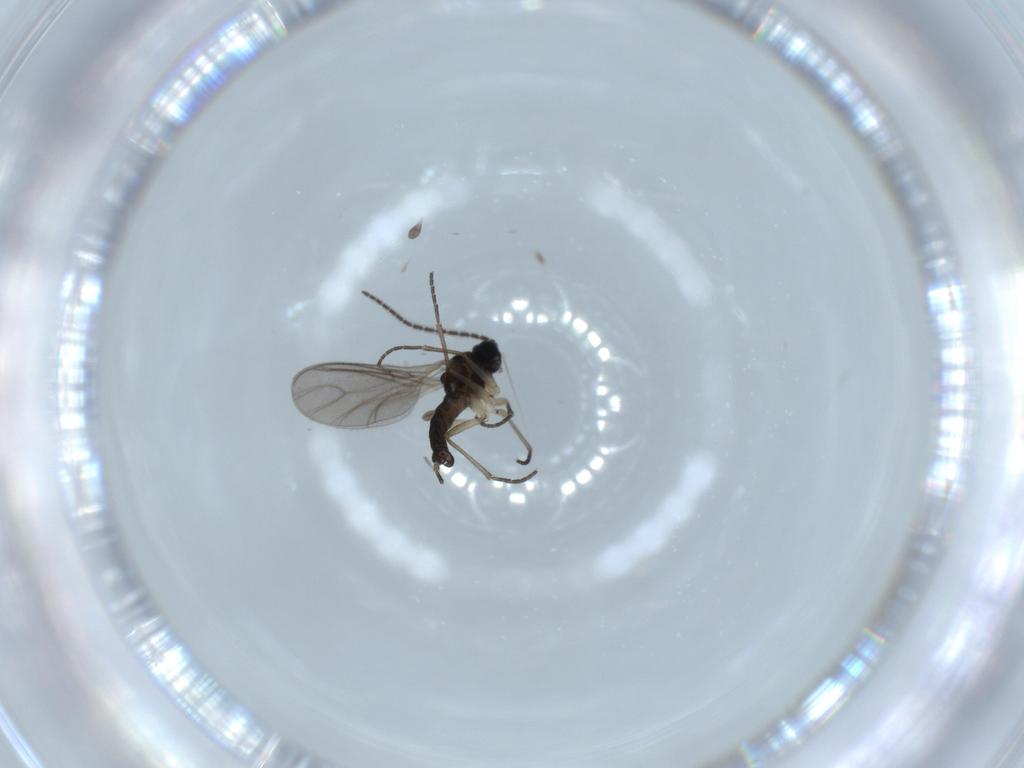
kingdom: Animalia
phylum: Arthropoda
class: Insecta
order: Diptera
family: Sciaridae
